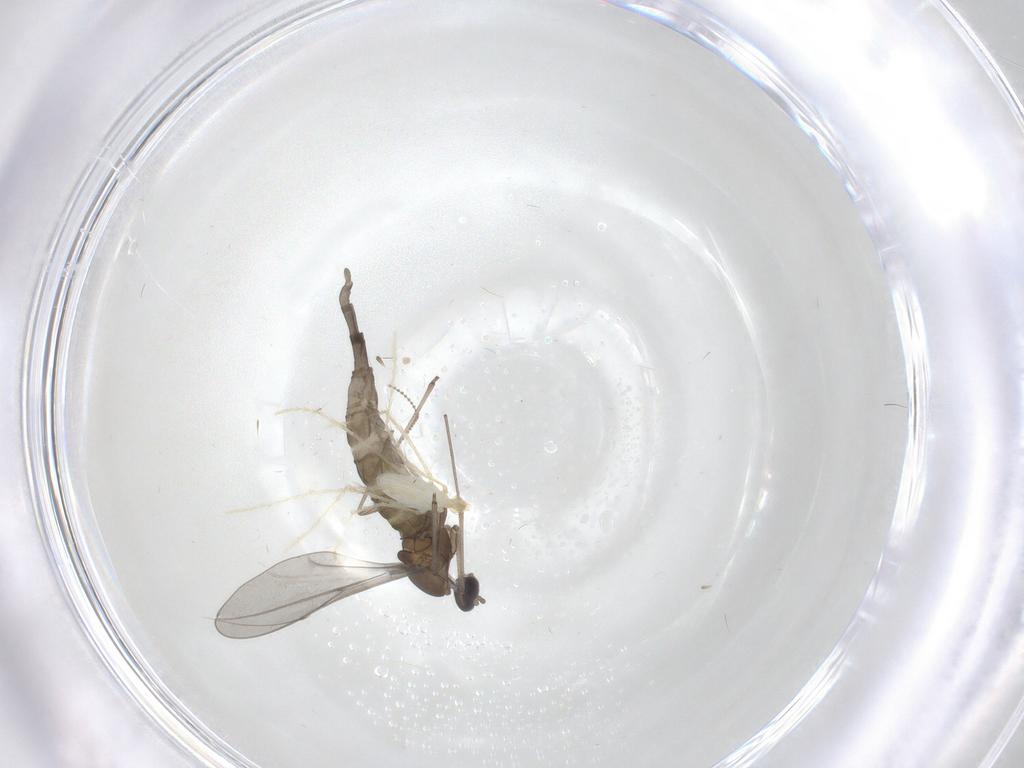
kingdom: Animalia
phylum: Arthropoda
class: Insecta
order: Diptera
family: Cecidomyiidae
